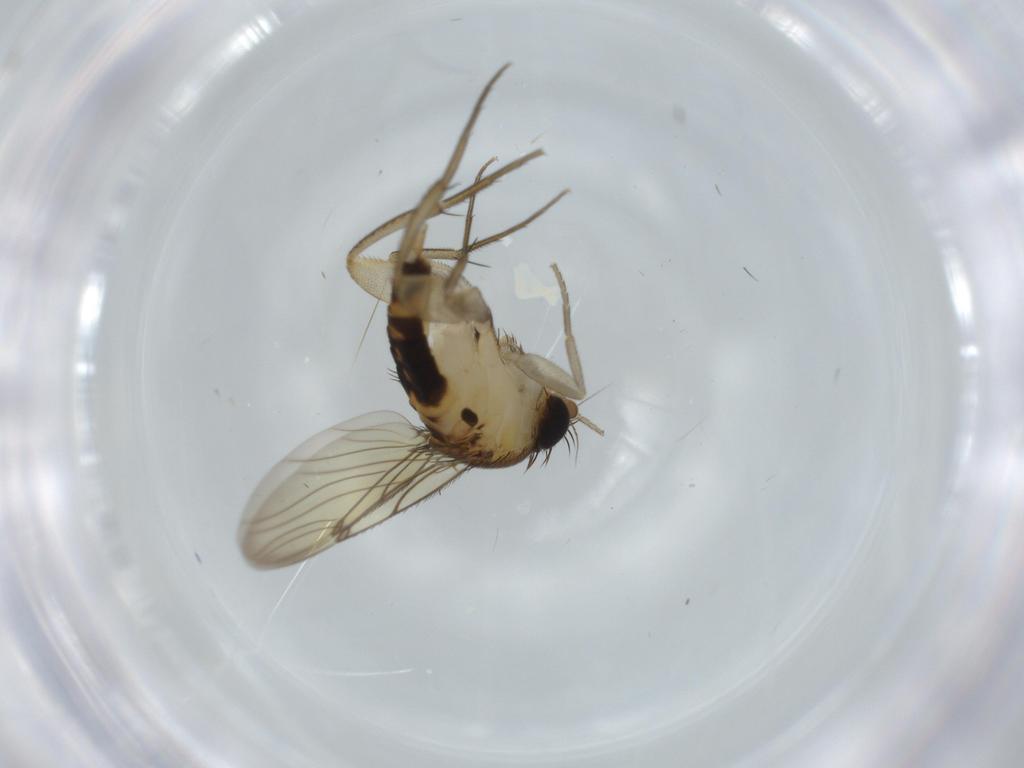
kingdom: Animalia
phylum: Arthropoda
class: Insecta
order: Diptera
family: Clusiidae
